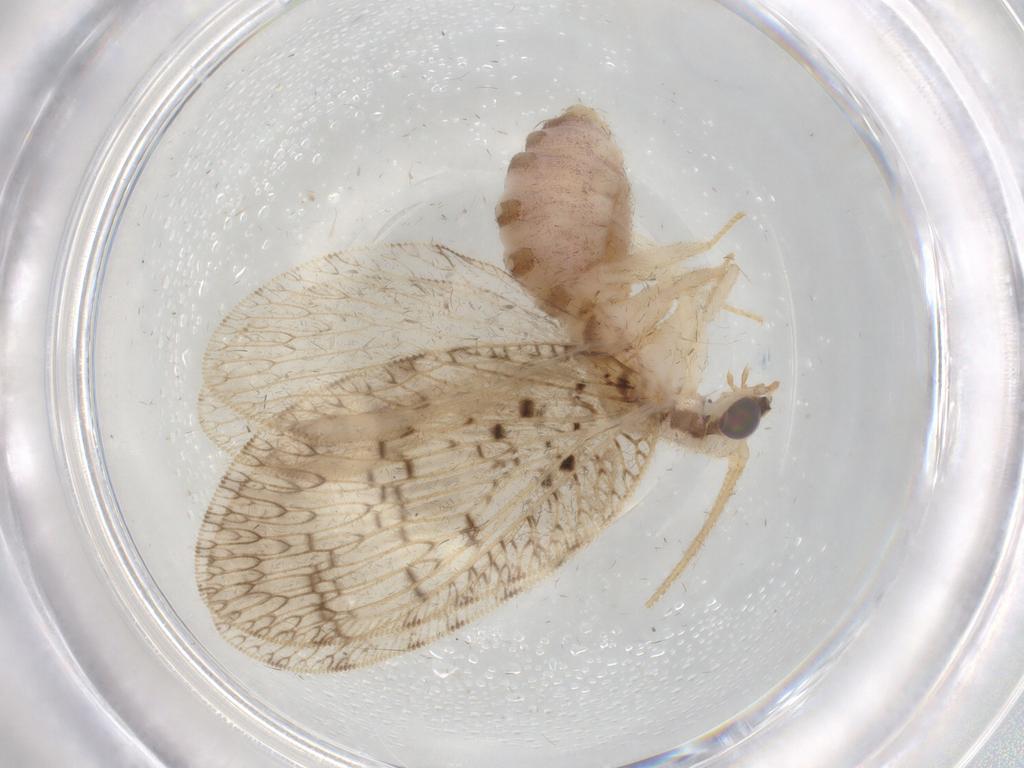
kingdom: Animalia
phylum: Arthropoda
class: Insecta
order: Neuroptera
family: Hemerobiidae
